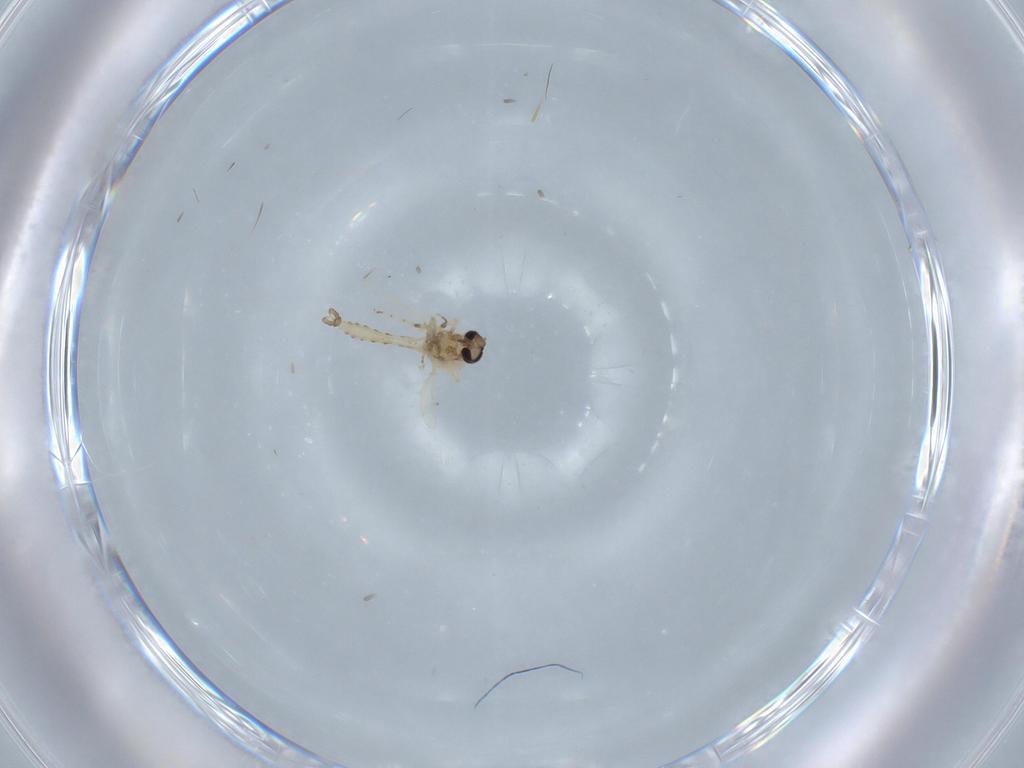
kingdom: Animalia
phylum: Arthropoda
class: Insecta
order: Diptera
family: Ceratopogonidae
